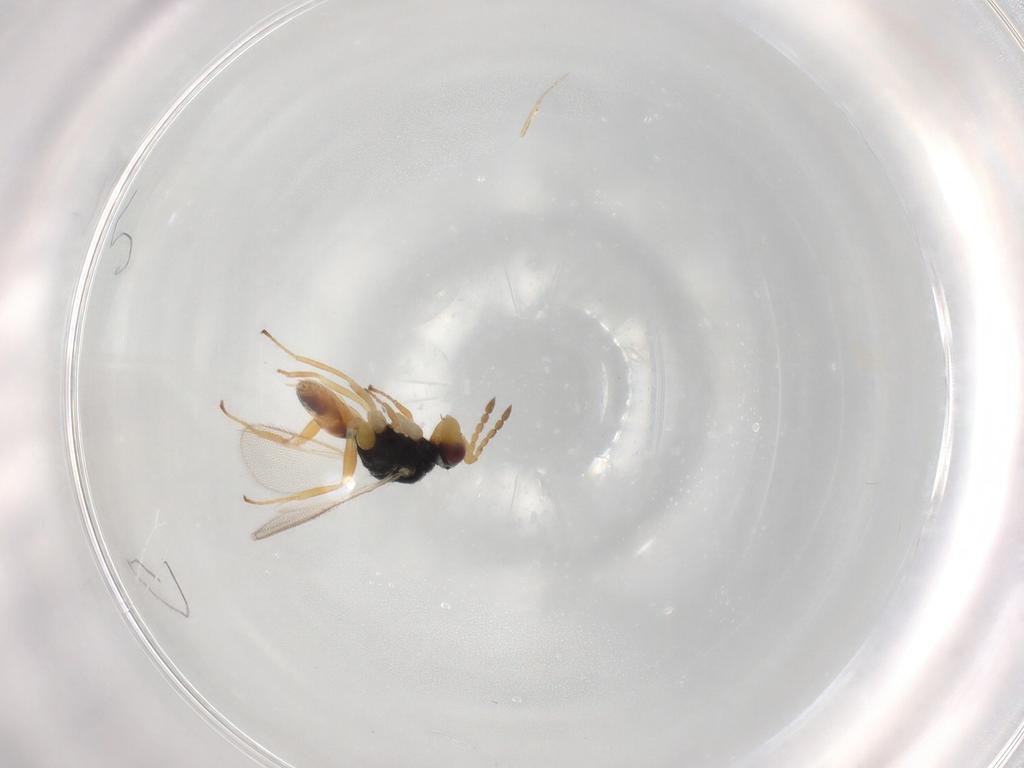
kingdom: Animalia
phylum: Arthropoda
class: Insecta
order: Hymenoptera
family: Eulophidae
